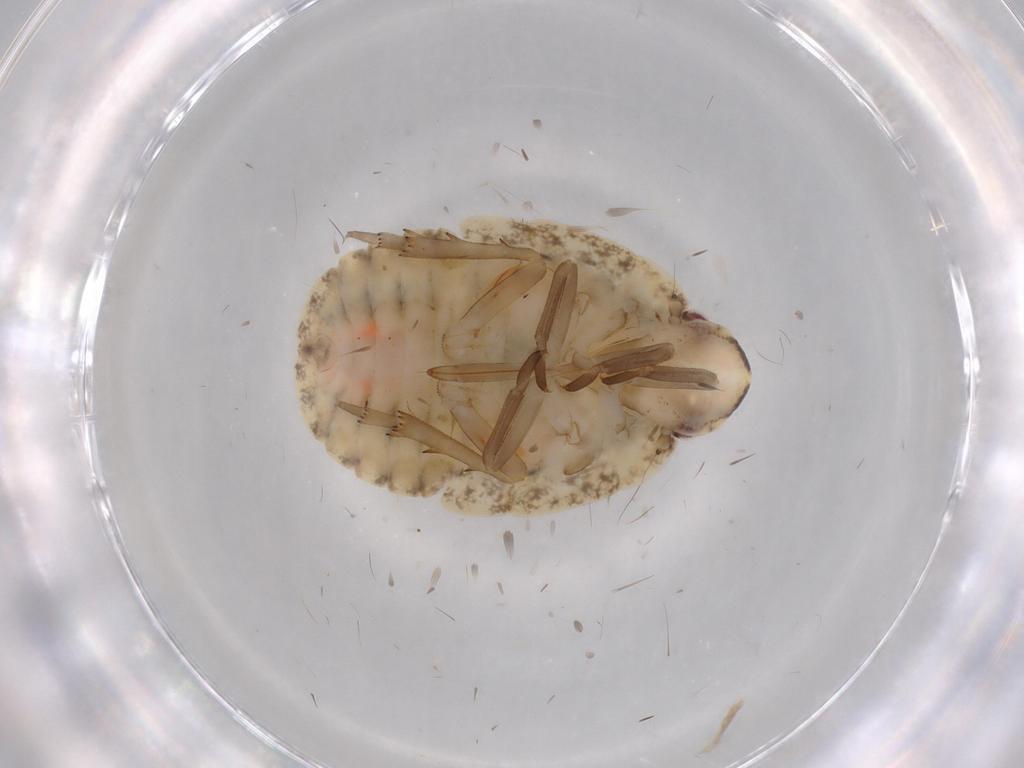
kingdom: Animalia
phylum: Arthropoda
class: Insecta
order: Hemiptera
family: Flatidae
